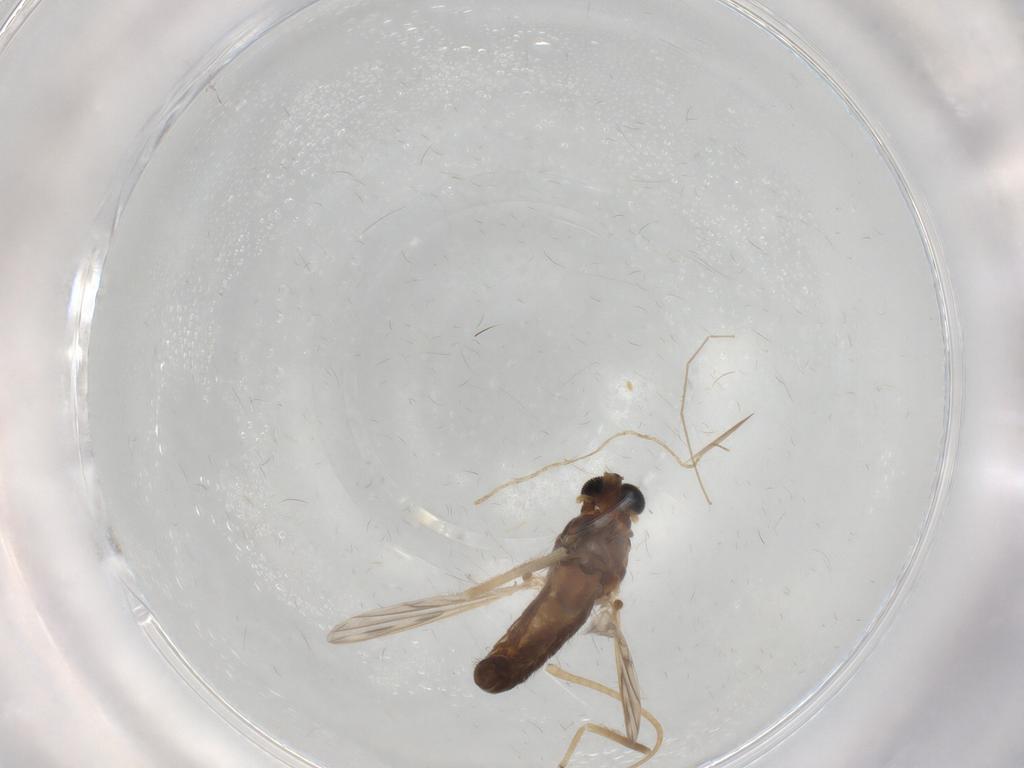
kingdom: Animalia
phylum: Arthropoda
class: Insecta
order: Diptera
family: Chironomidae
